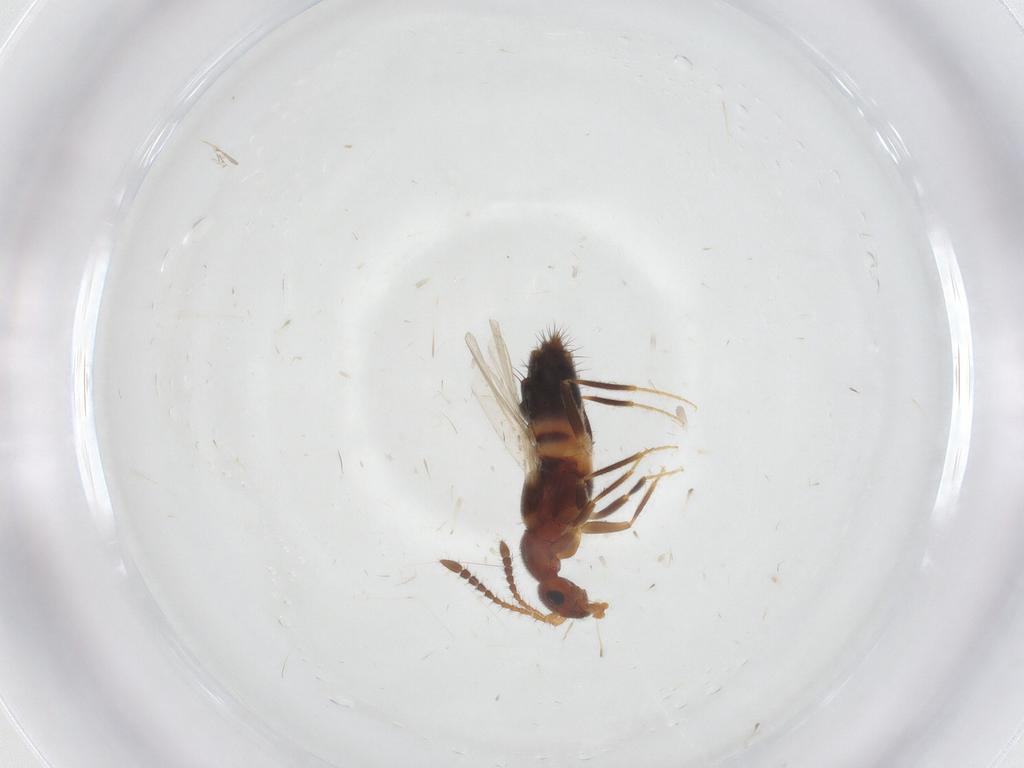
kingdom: Animalia
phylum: Arthropoda
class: Insecta
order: Coleoptera
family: Staphylinidae
